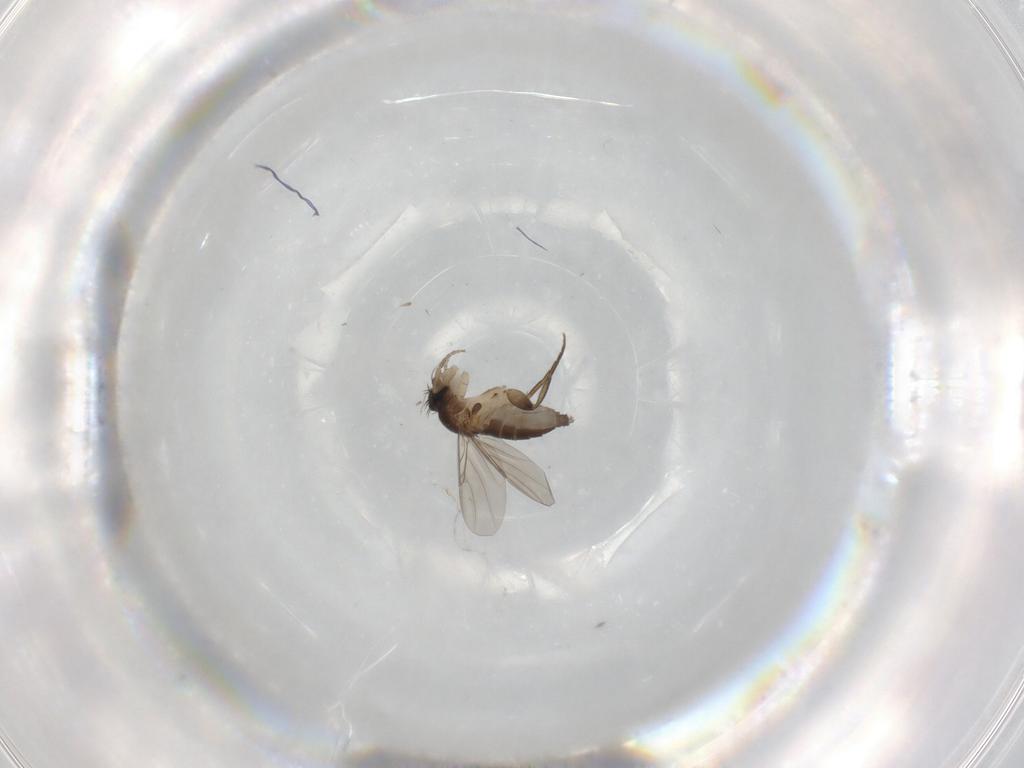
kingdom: Animalia
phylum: Arthropoda
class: Insecta
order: Diptera
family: Phoridae
